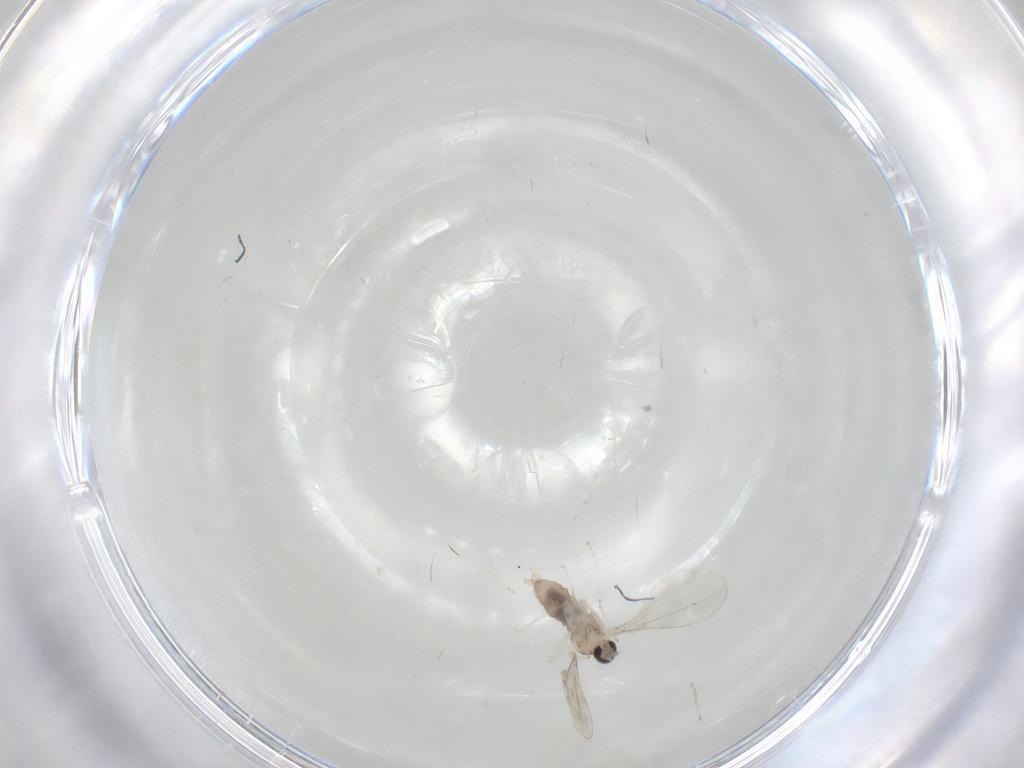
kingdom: Animalia
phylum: Arthropoda
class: Insecta
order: Diptera
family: Cecidomyiidae
